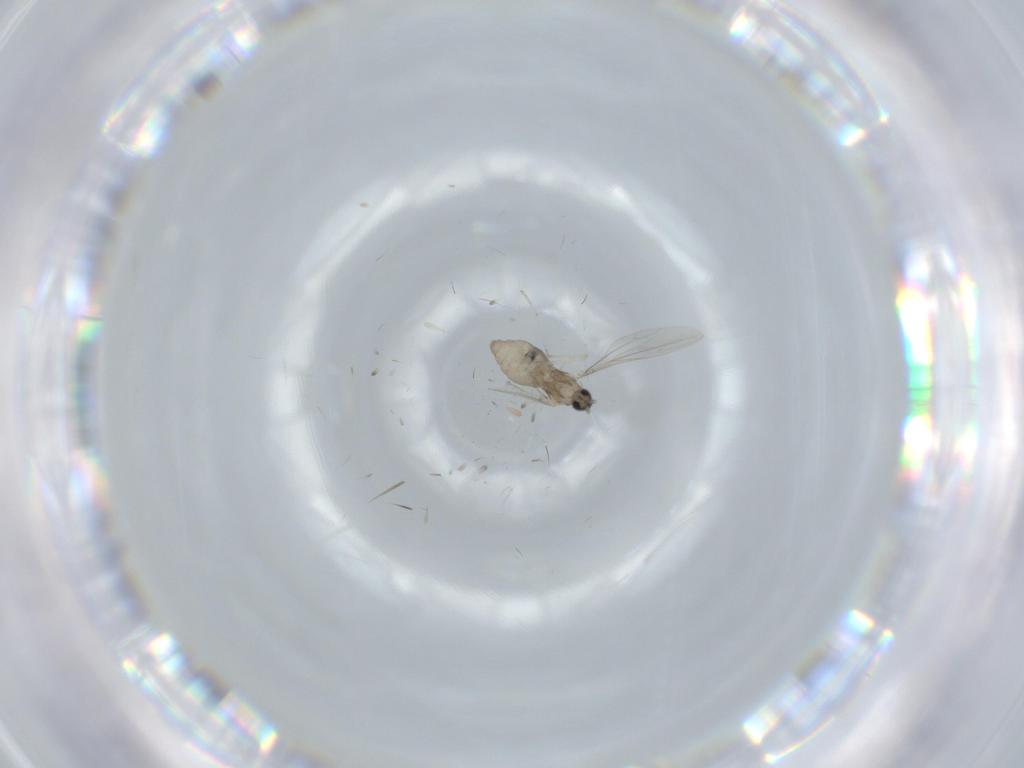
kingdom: Animalia
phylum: Arthropoda
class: Insecta
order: Diptera
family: Cecidomyiidae
